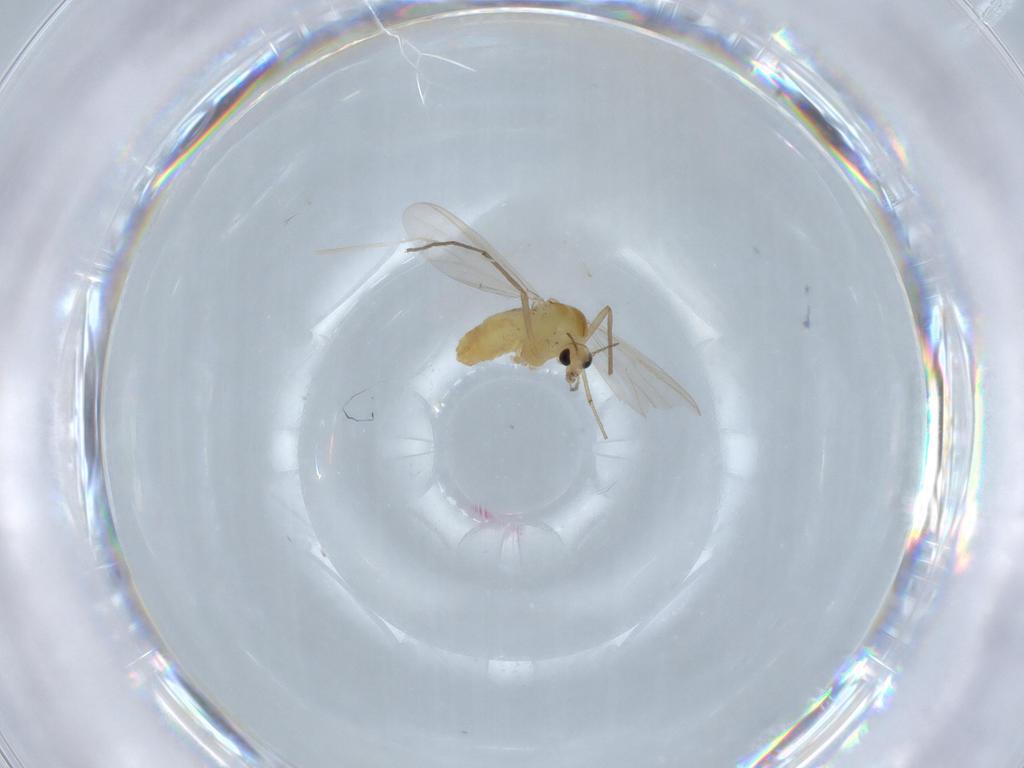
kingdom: Animalia
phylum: Arthropoda
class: Insecta
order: Diptera
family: Chironomidae
